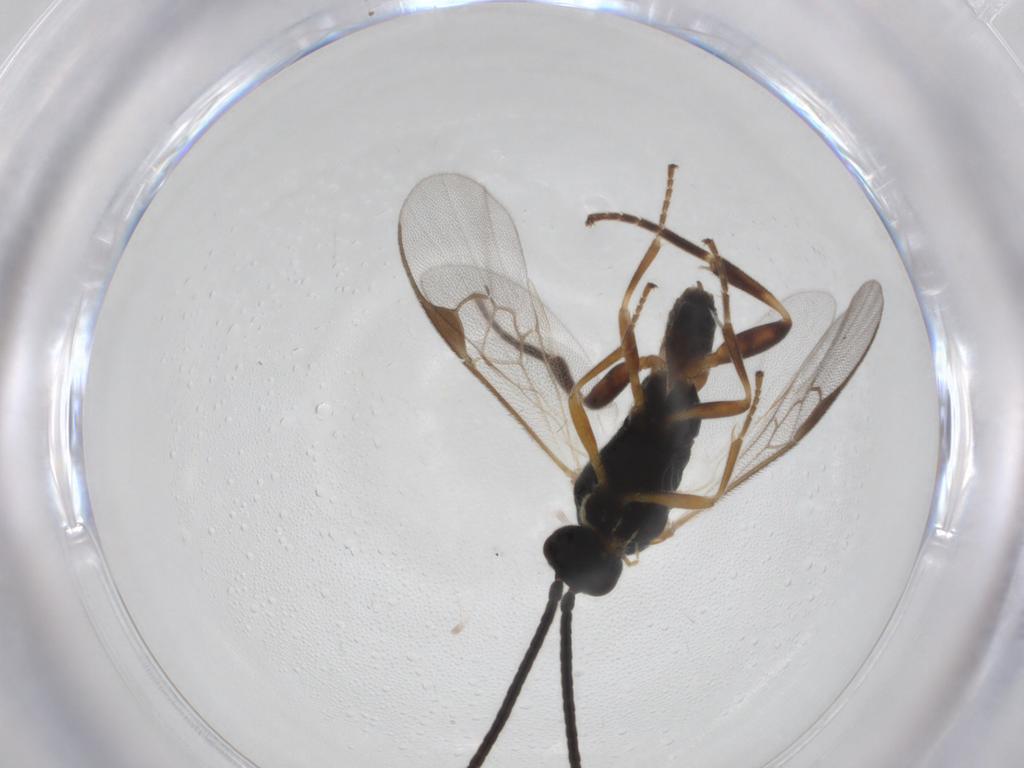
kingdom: Animalia
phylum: Arthropoda
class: Insecta
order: Hymenoptera
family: Braconidae
